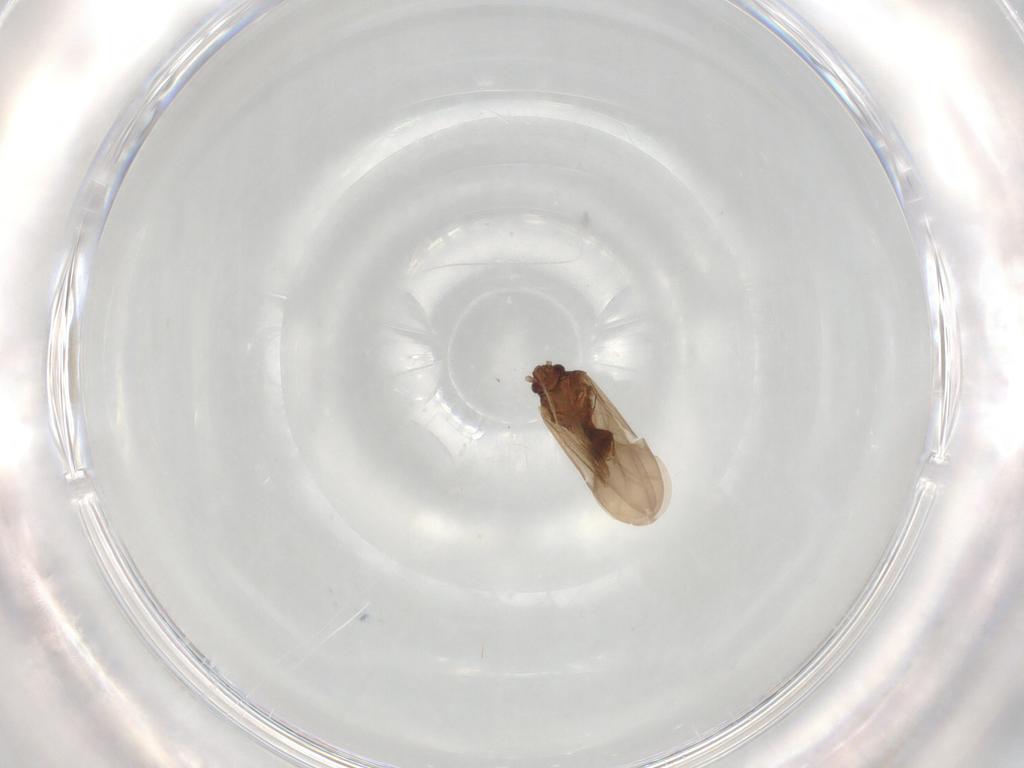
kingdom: Animalia
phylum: Arthropoda
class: Insecta
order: Hemiptera
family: Ceratocombidae
